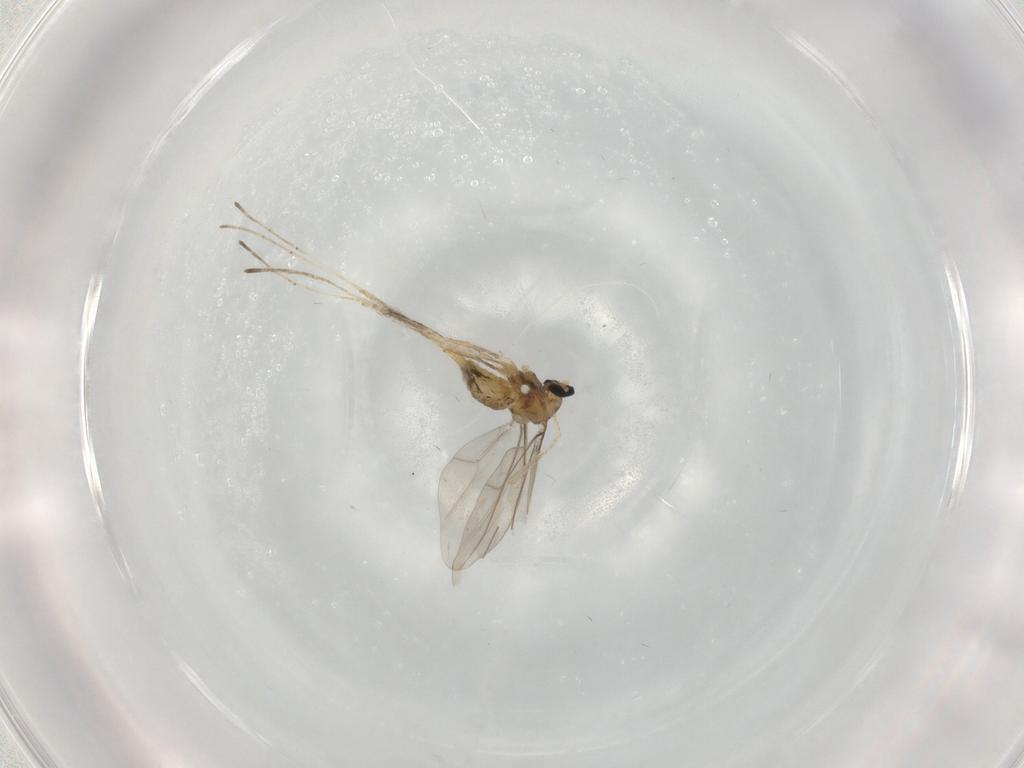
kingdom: Animalia
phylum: Arthropoda
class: Insecta
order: Diptera
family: Cecidomyiidae
